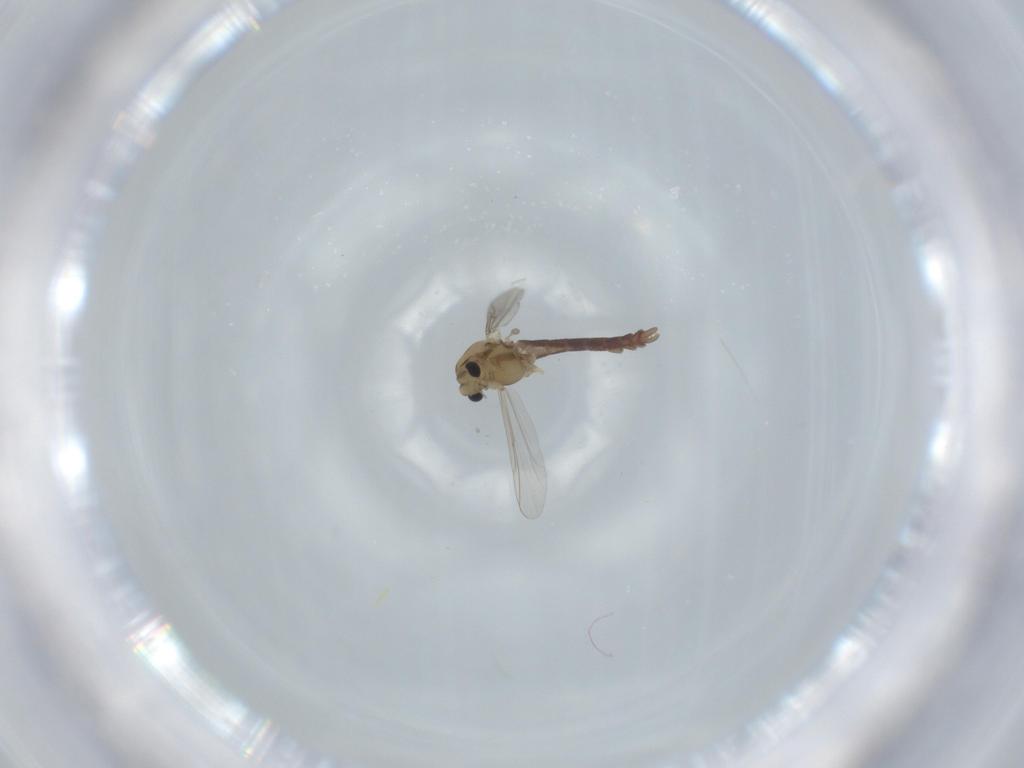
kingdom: Animalia
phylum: Arthropoda
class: Insecta
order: Diptera
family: Chironomidae
